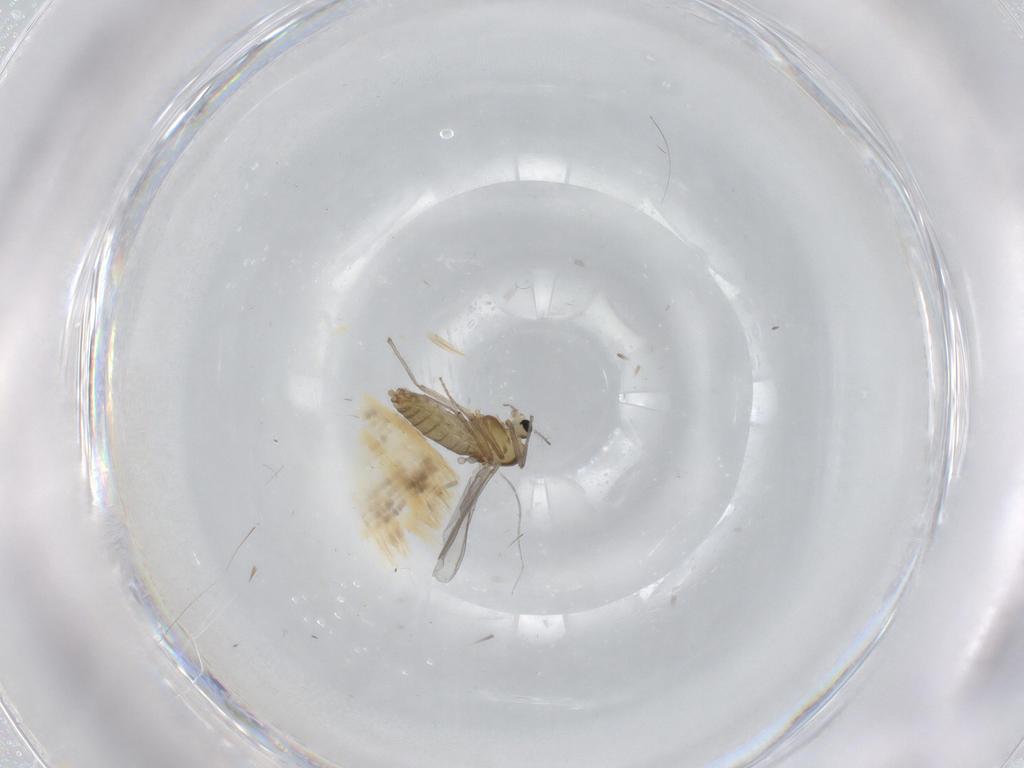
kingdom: Animalia
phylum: Arthropoda
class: Insecta
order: Diptera
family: Chironomidae
